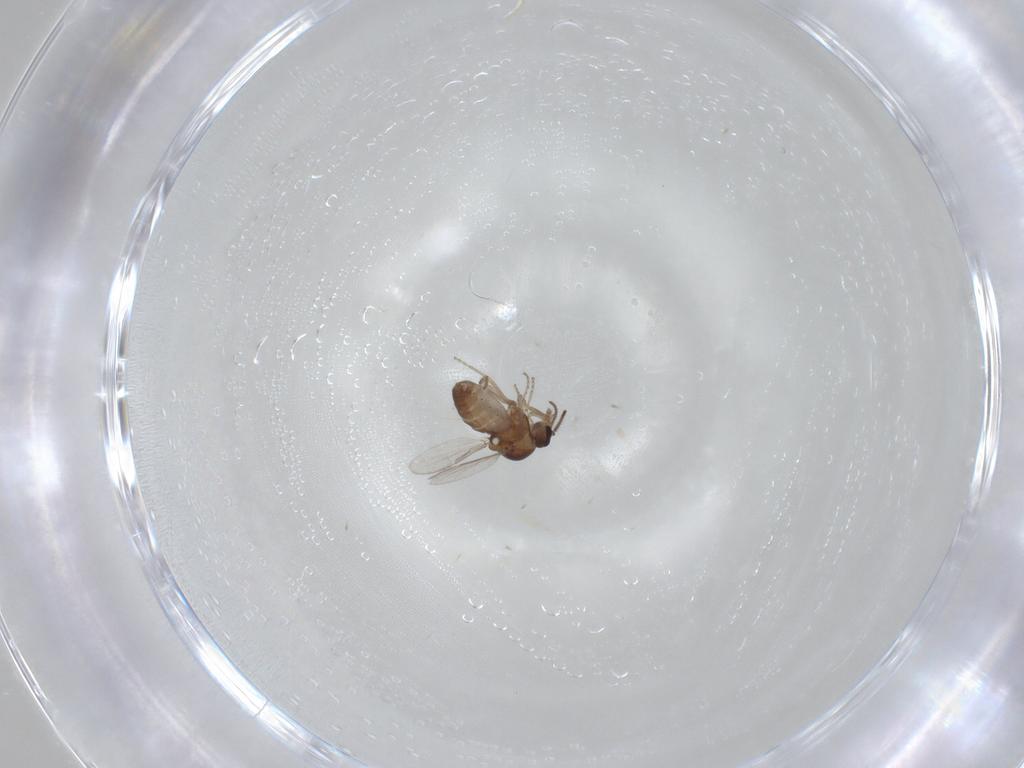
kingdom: Animalia
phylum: Arthropoda
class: Insecta
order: Diptera
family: Ceratopogonidae
